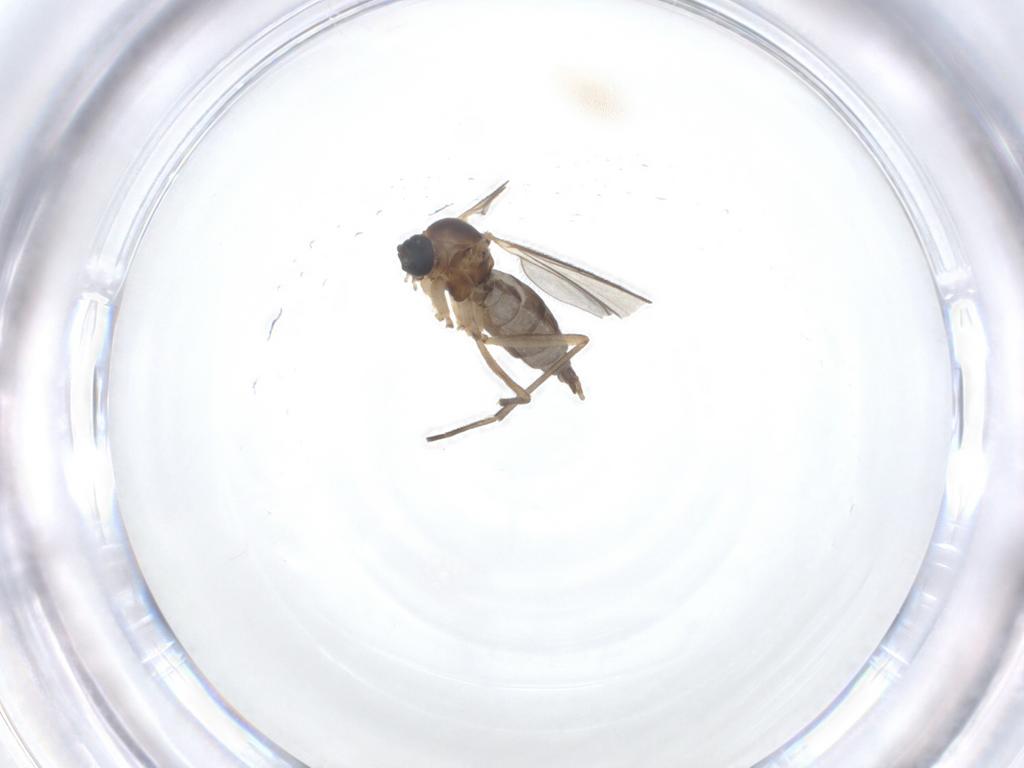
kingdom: Animalia
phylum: Arthropoda
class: Insecta
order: Diptera
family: Sciaridae
